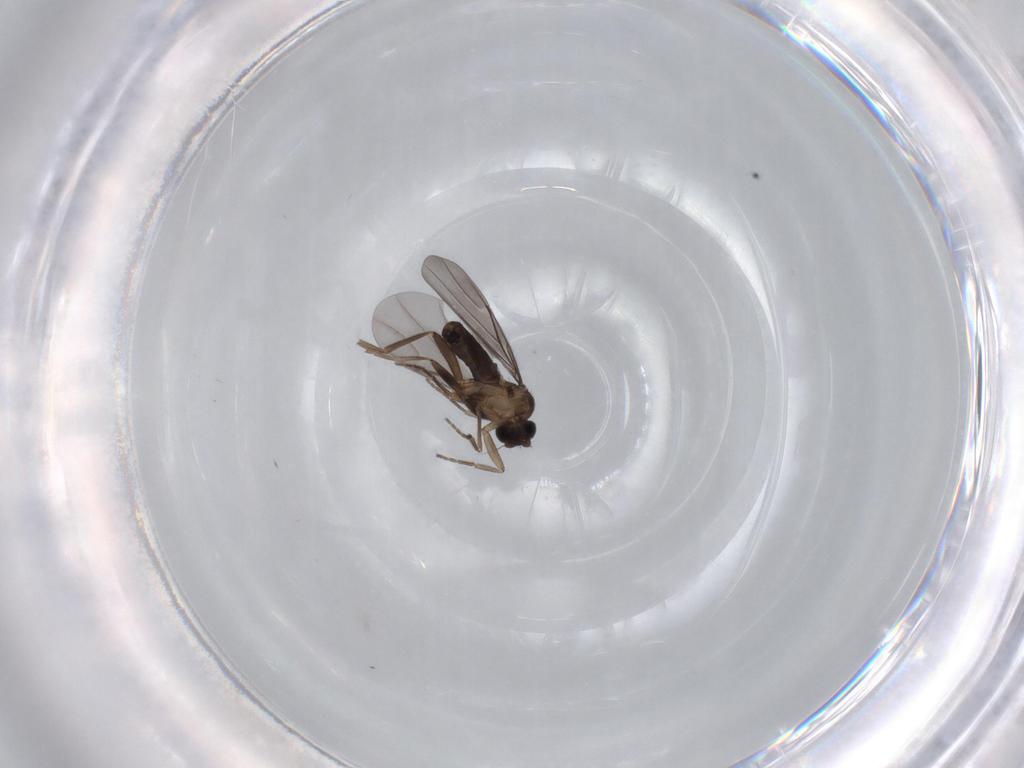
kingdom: Animalia
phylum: Arthropoda
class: Insecta
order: Diptera
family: Phoridae
